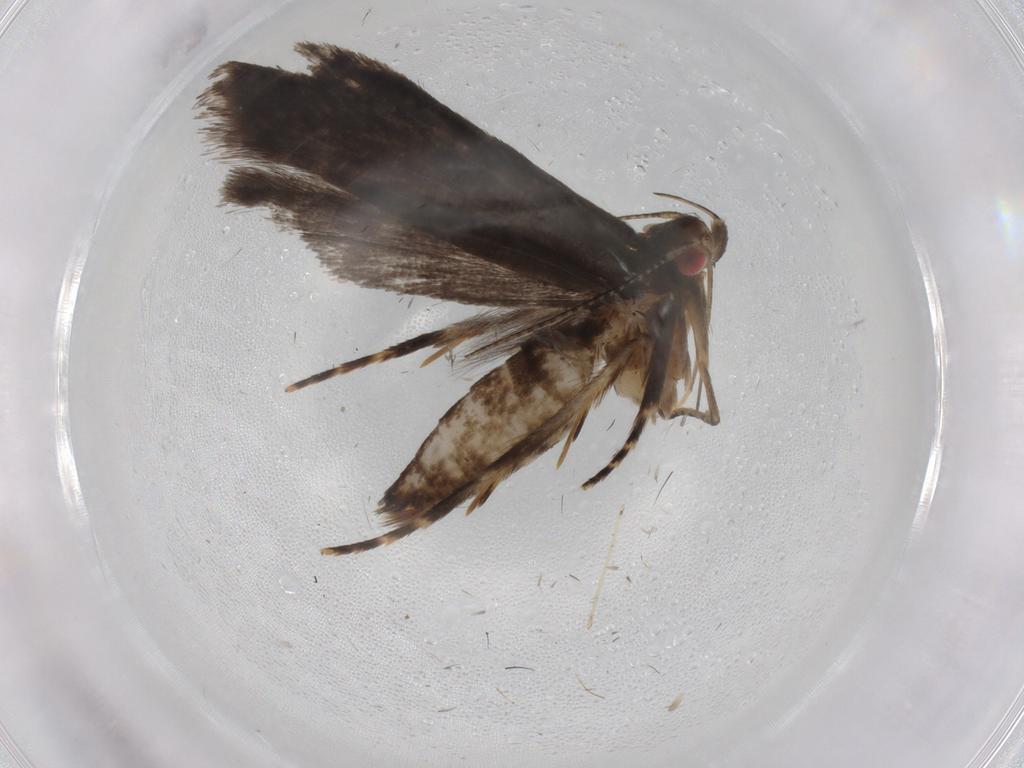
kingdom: Animalia
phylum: Arthropoda
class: Insecta
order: Lepidoptera
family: Gelechiidae
